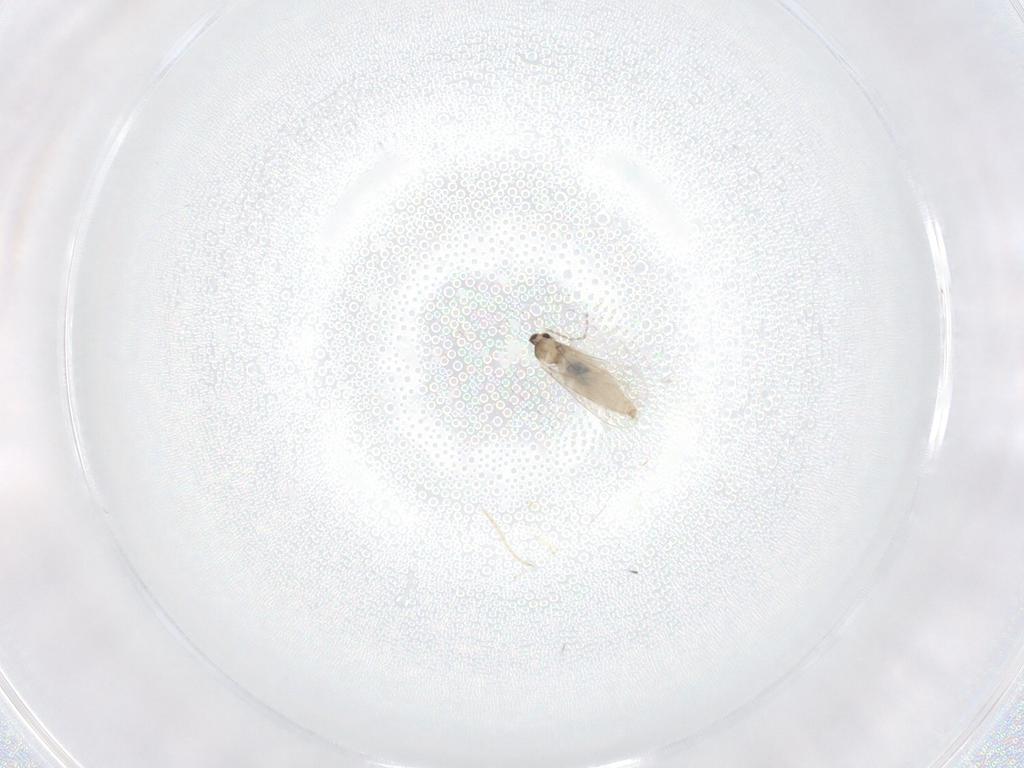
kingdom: Animalia
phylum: Arthropoda
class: Insecta
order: Diptera
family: Cecidomyiidae
